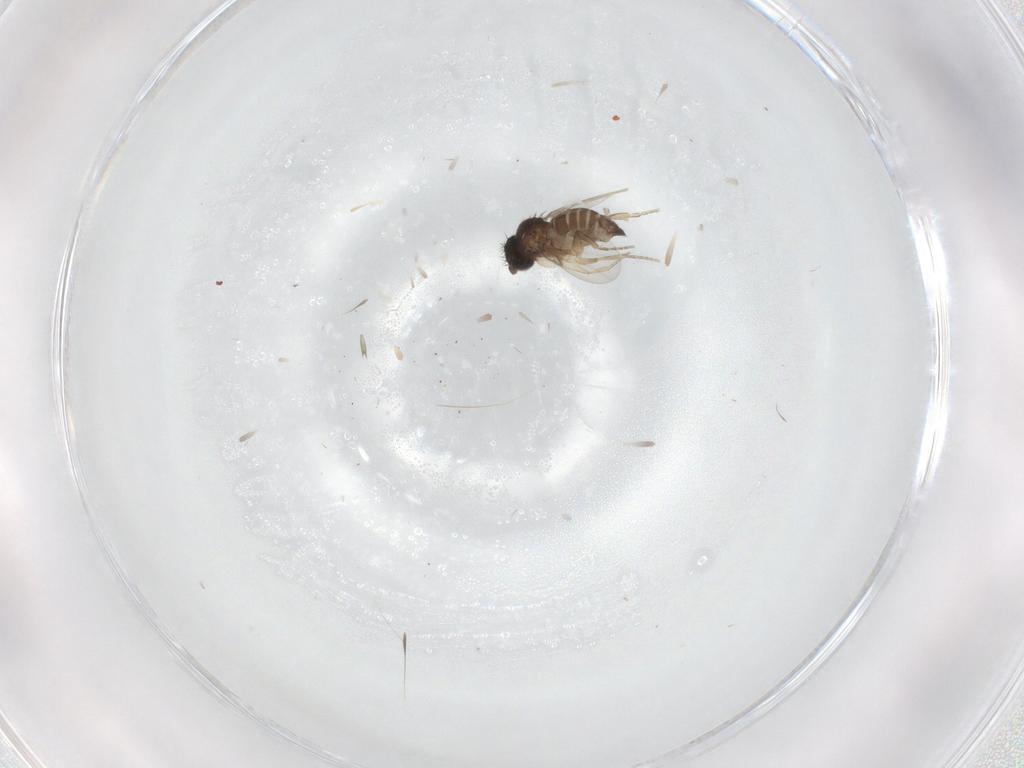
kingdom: Animalia
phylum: Arthropoda
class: Insecta
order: Diptera
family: Phoridae
